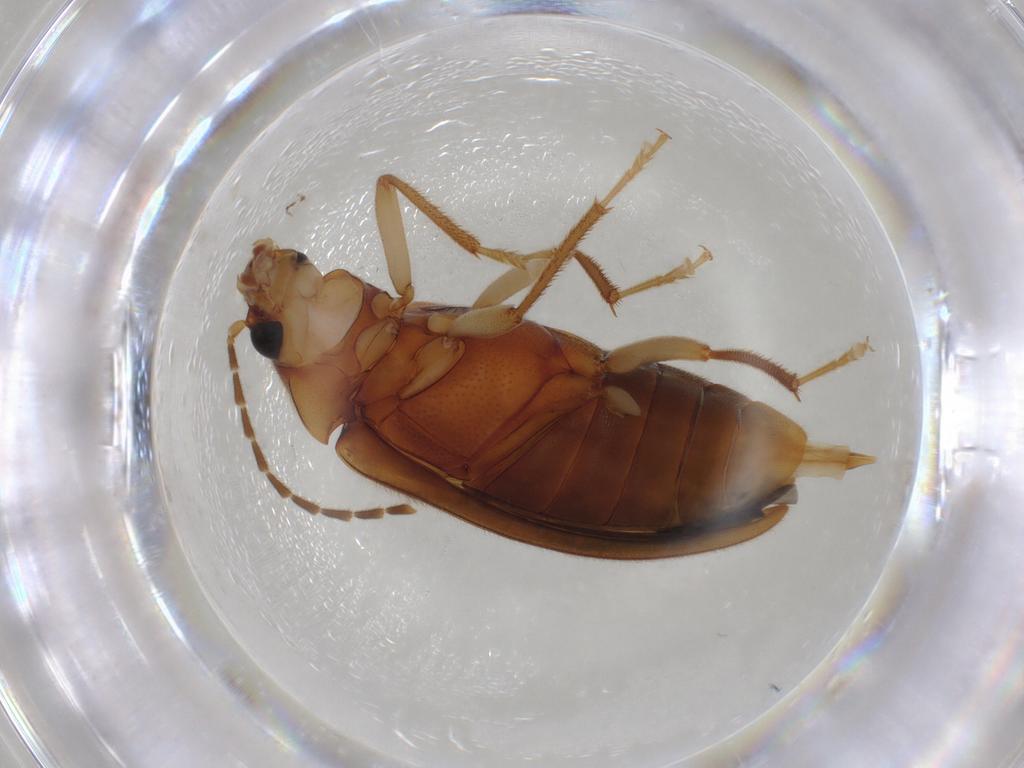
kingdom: Animalia
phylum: Arthropoda
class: Insecta
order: Coleoptera
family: Ptilodactylidae
